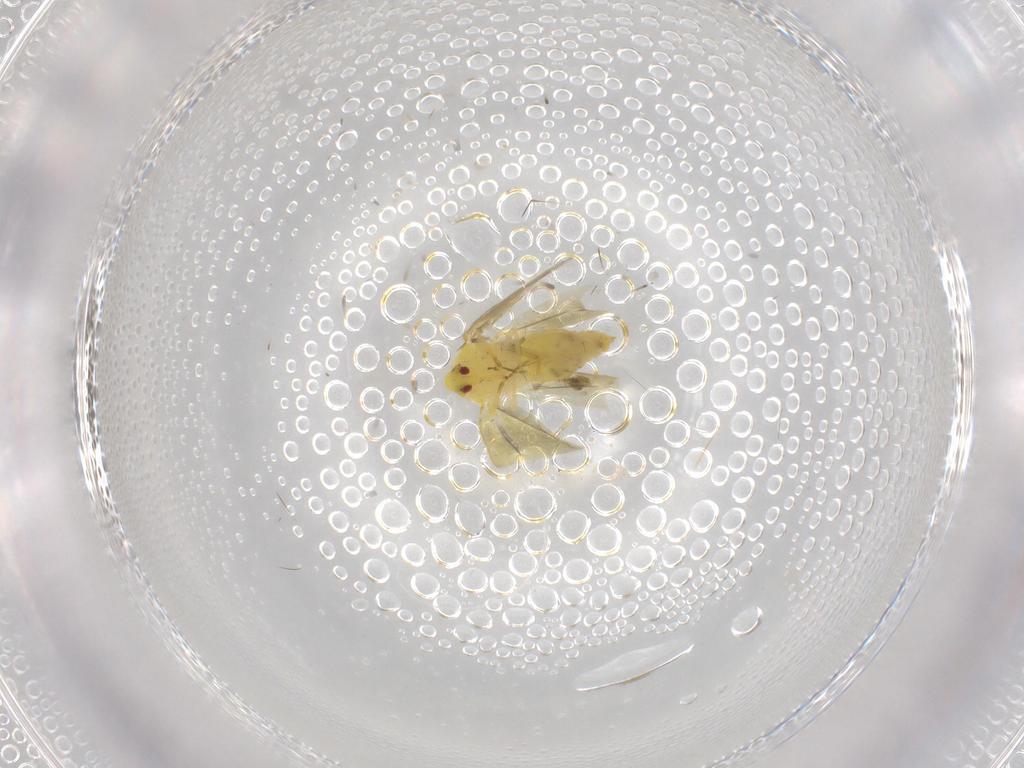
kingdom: Animalia
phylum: Arthropoda
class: Insecta
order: Hemiptera
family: Aleyrodidae
